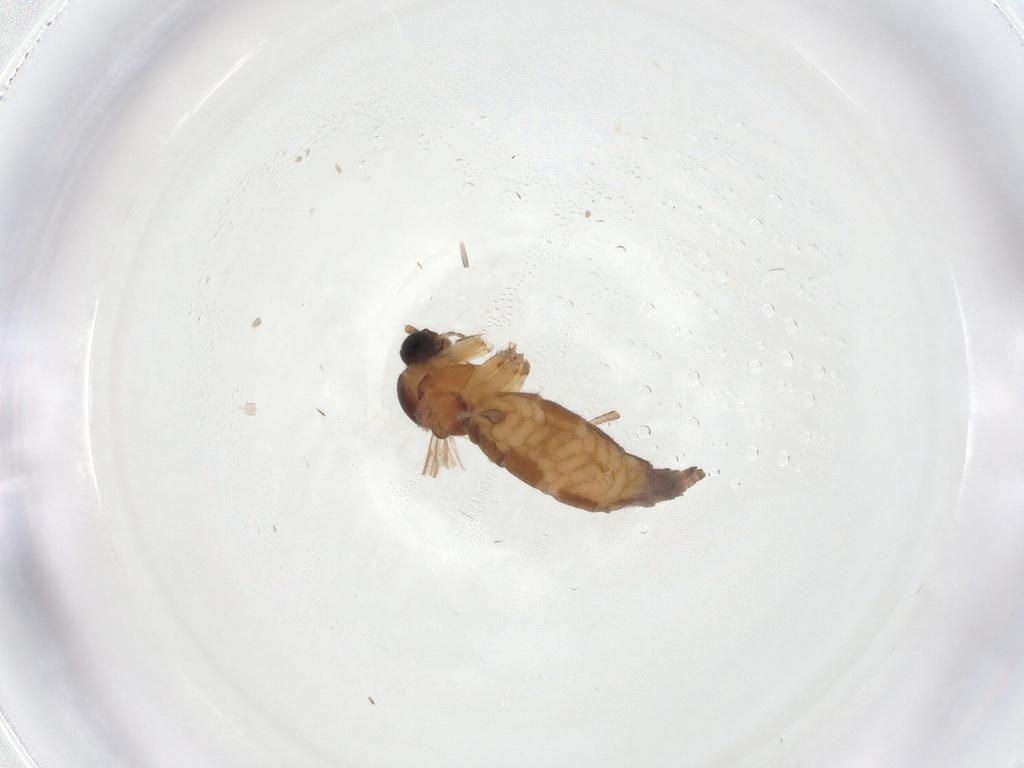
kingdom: Animalia
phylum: Arthropoda
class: Insecta
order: Diptera
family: Sciaridae
